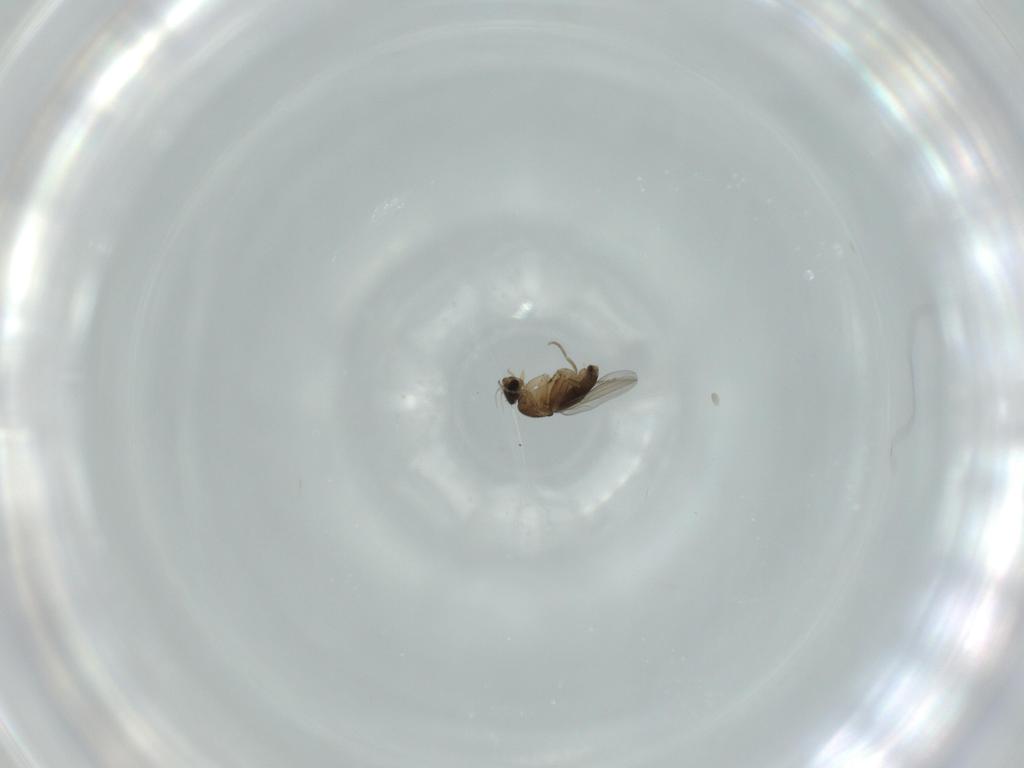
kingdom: Animalia
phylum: Arthropoda
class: Insecta
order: Diptera
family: Phoridae
